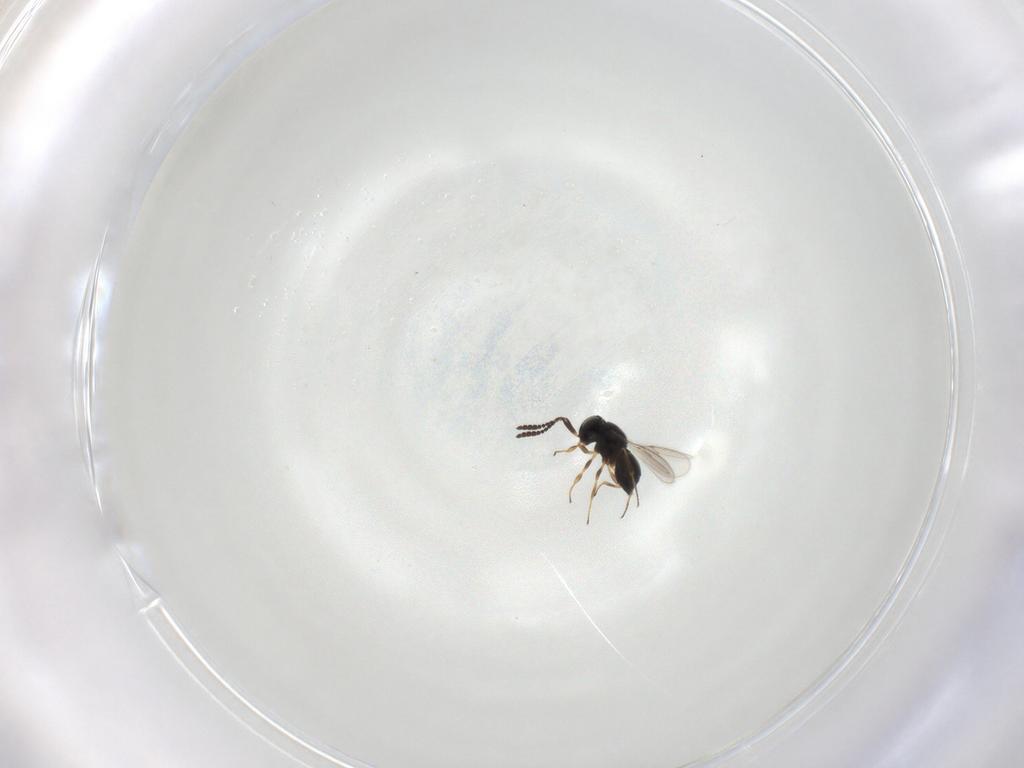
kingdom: Animalia
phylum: Arthropoda
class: Insecta
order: Hymenoptera
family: Scelionidae
